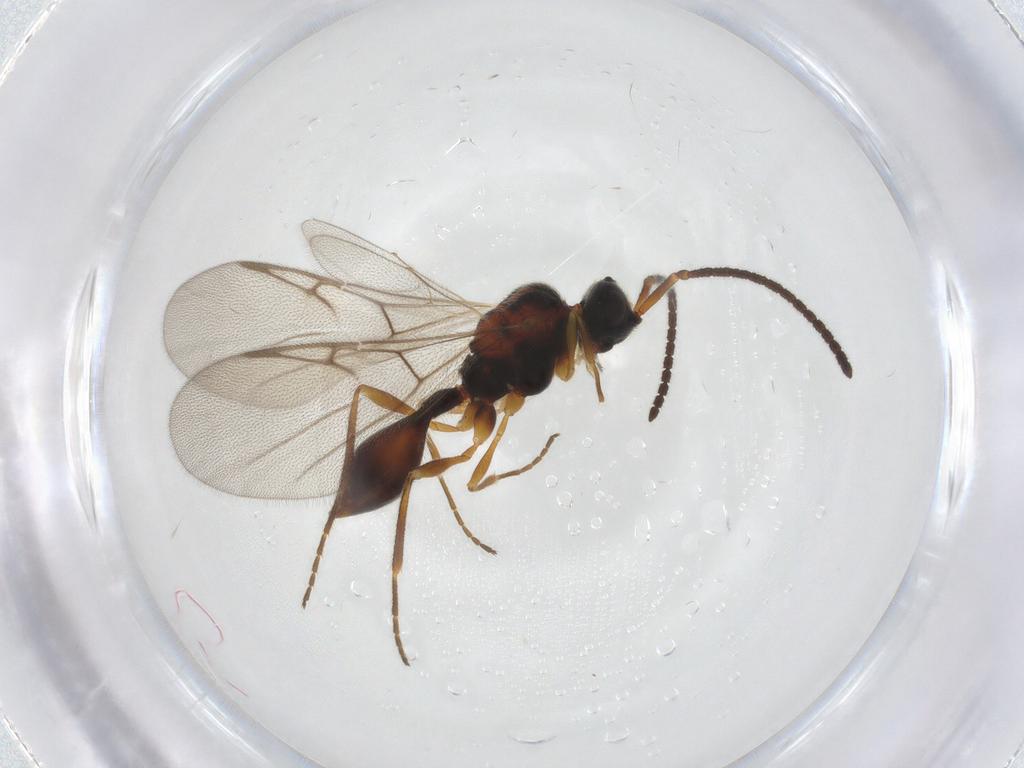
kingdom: Animalia
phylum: Arthropoda
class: Insecta
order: Hymenoptera
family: Diapriidae
